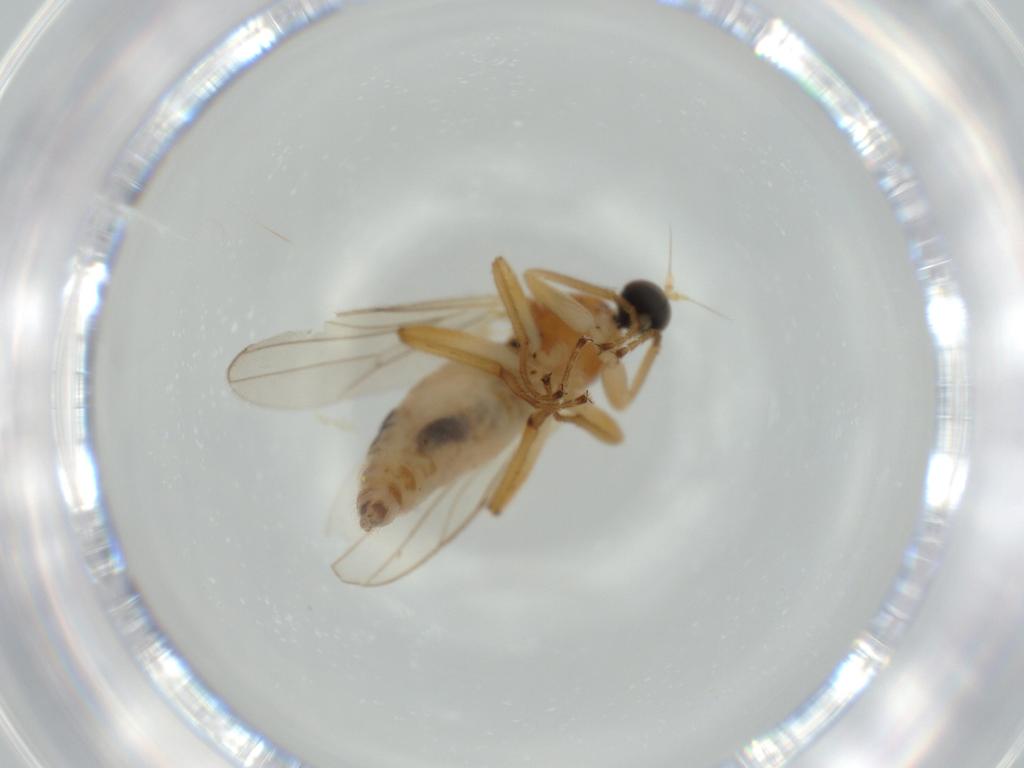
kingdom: Animalia
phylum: Arthropoda
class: Insecta
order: Diptera
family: Hybotidae
